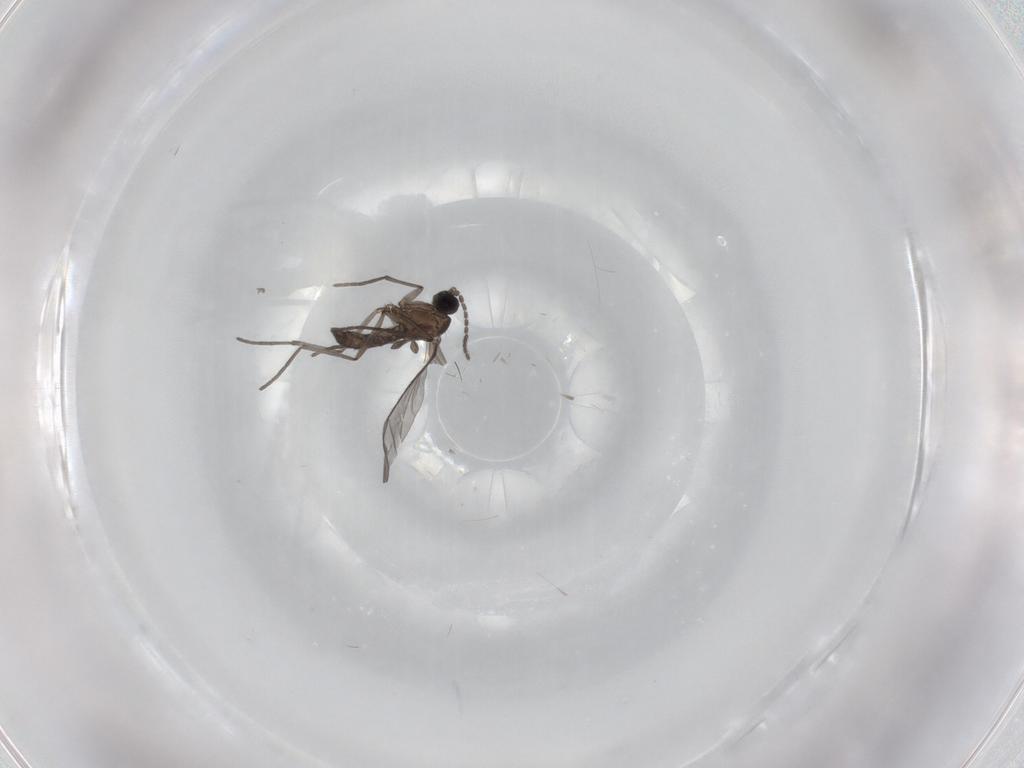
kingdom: Animalia
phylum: Arthropoda
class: Insecta
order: Diptera
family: Sciaridae
